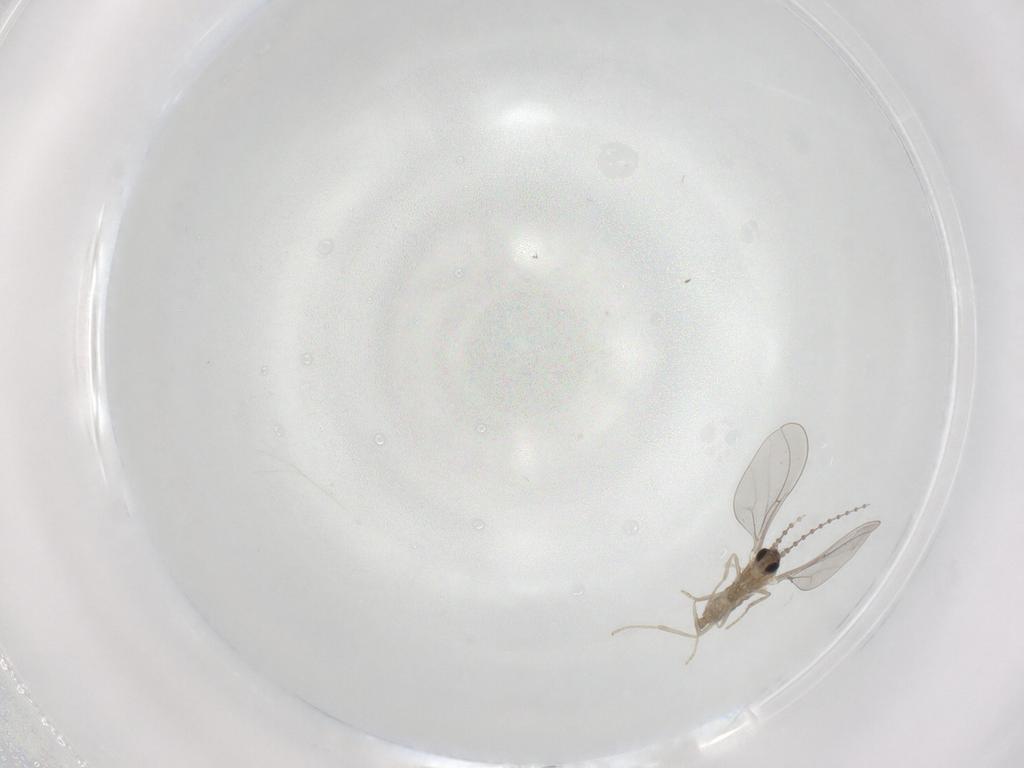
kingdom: Animalia
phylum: Arthropoda
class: Insecta
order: Diptera
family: Cecidomyiidae
